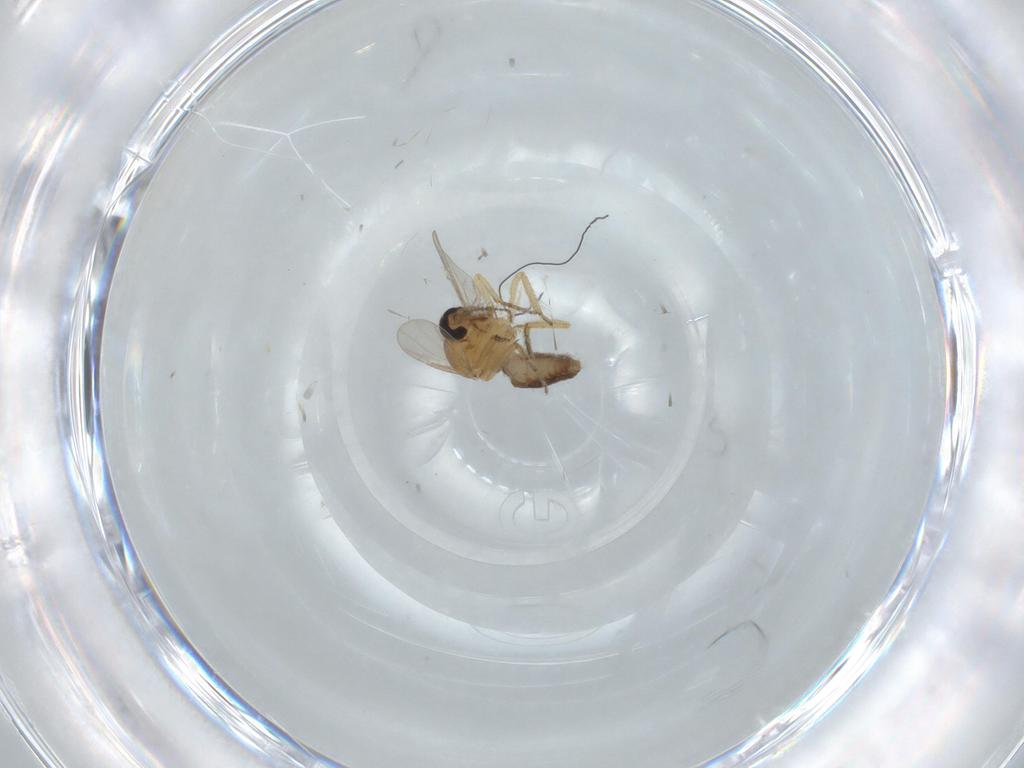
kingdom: Animalia
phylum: Arthropoda
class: Insecta
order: Diptera
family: Ceratopogonidae
